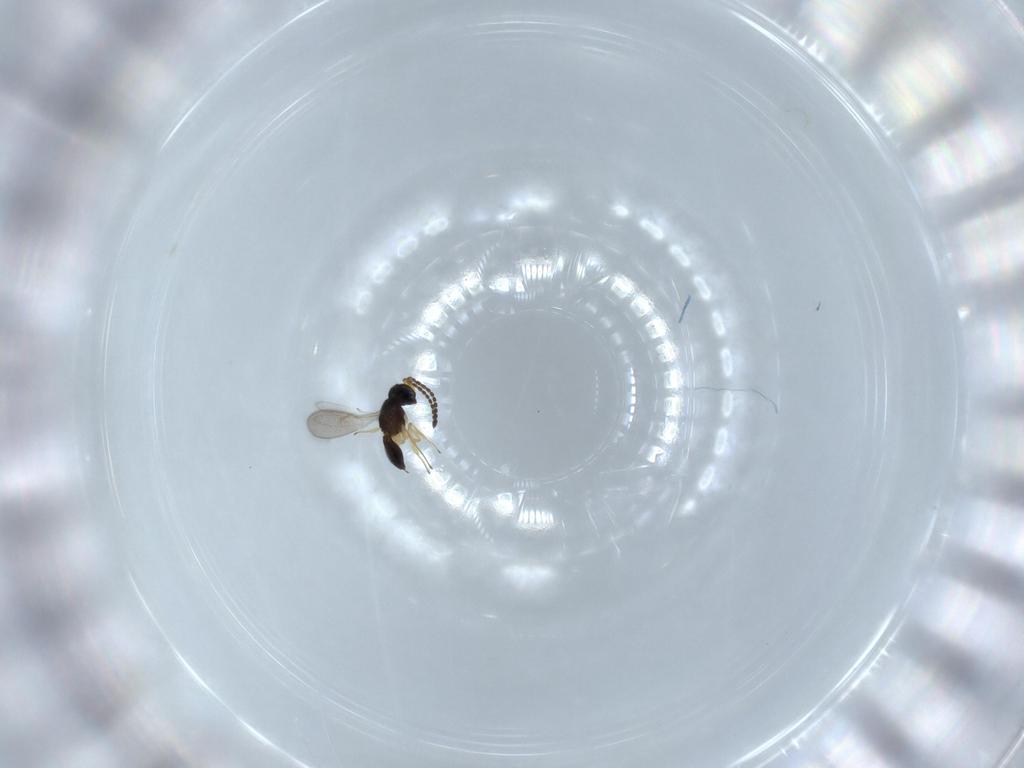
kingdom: Animalia
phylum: Arthropoda
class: Insecta
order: Hymenoptera
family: Scelionidae
